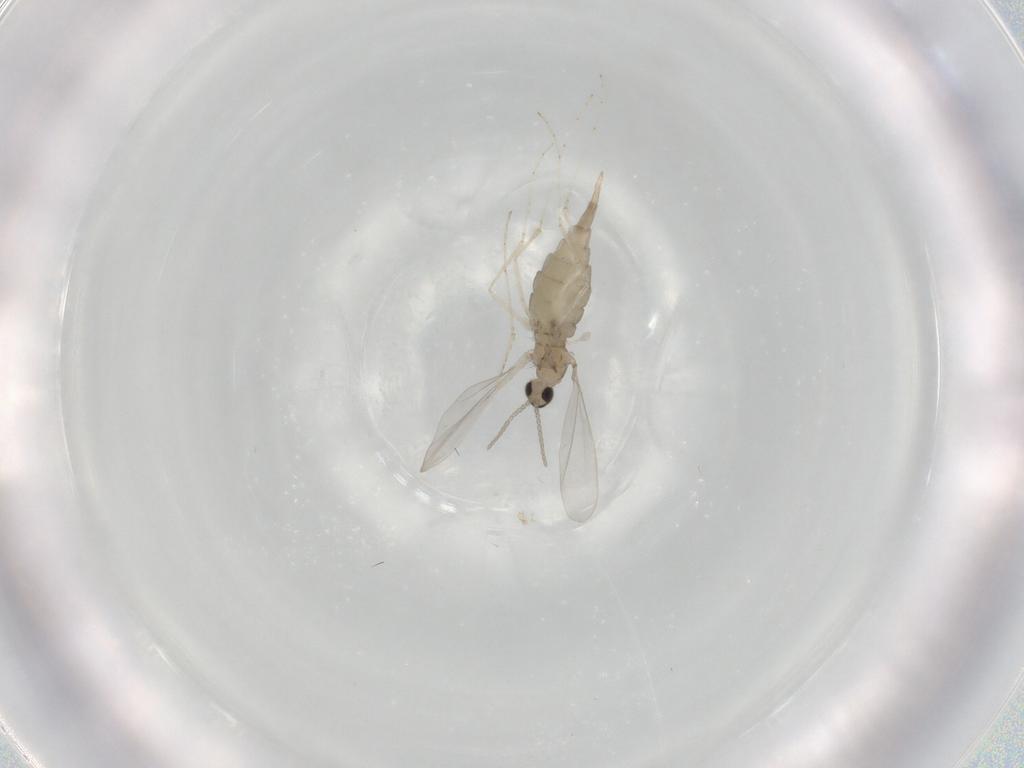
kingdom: Animalia
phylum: Arthropoda
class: Insecta
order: Diptera
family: Cecidomyiidae
